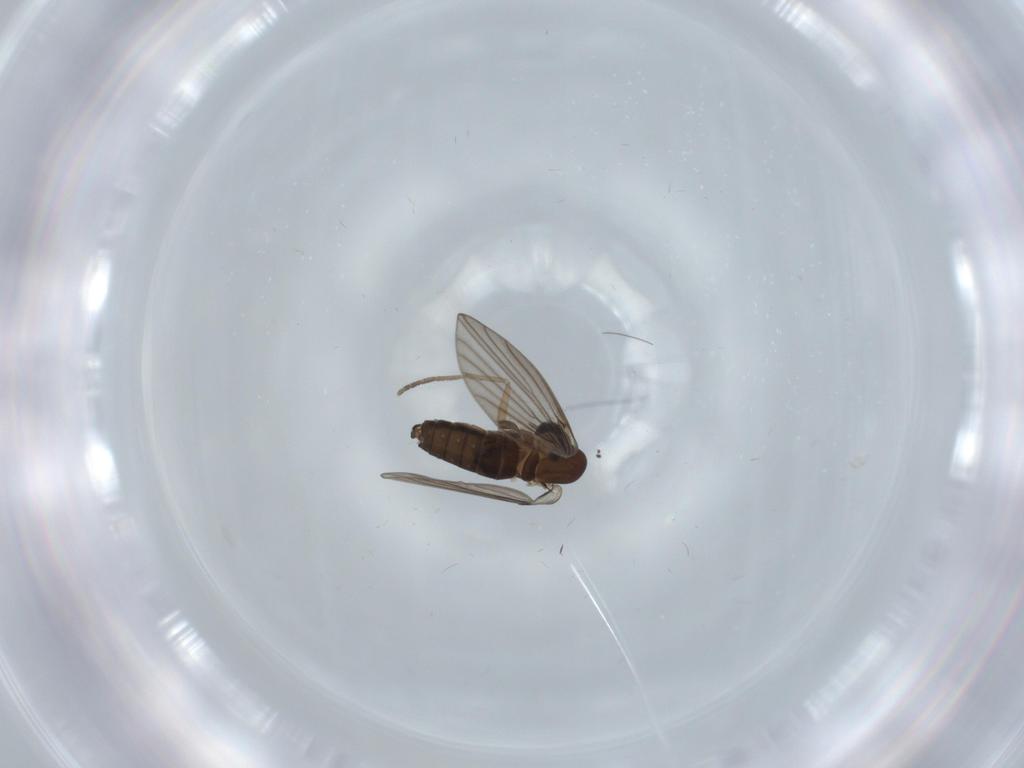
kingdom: Animalia
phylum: Arthropoda
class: Insecta
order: Diptera
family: Psychodidae
